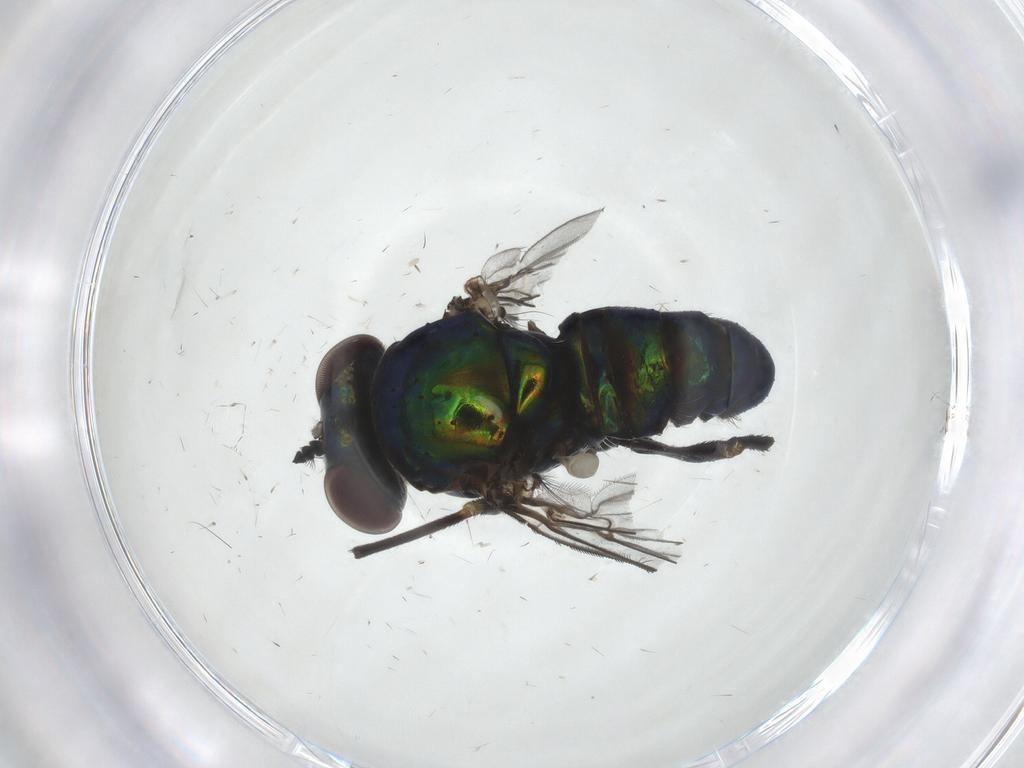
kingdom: Animalia
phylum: Arthropoda
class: Insecta
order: Diptera
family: Dolichopodidae
